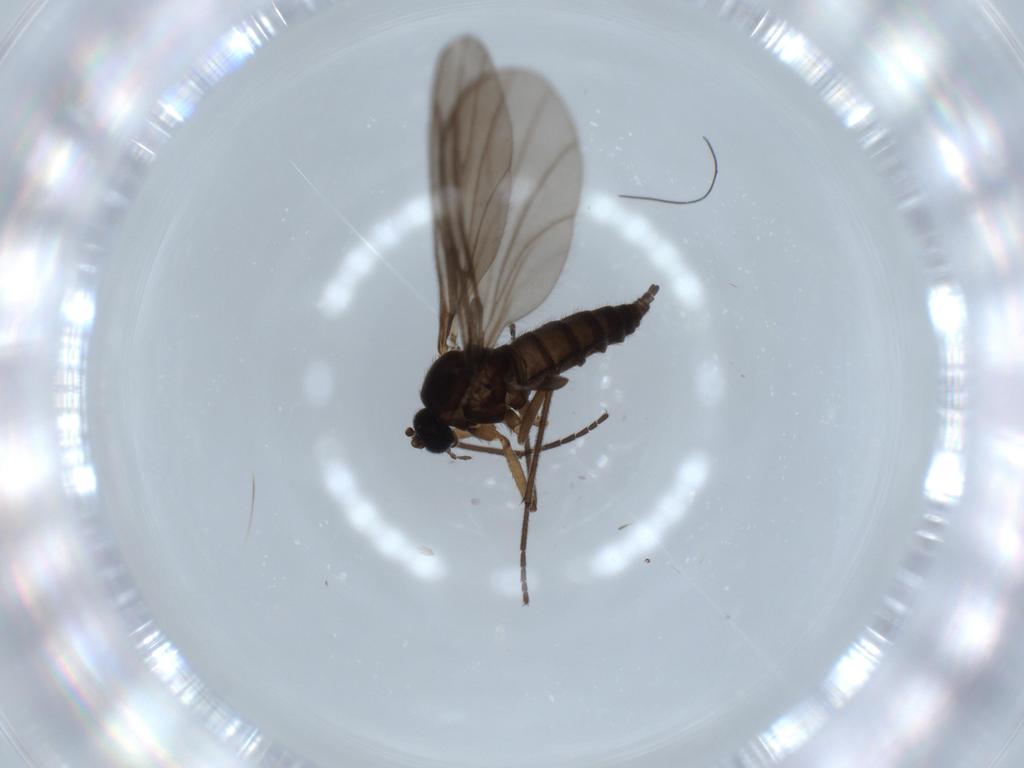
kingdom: Animalia
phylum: Arthropoda
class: Insecta
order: Diptera
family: Sciaridae
